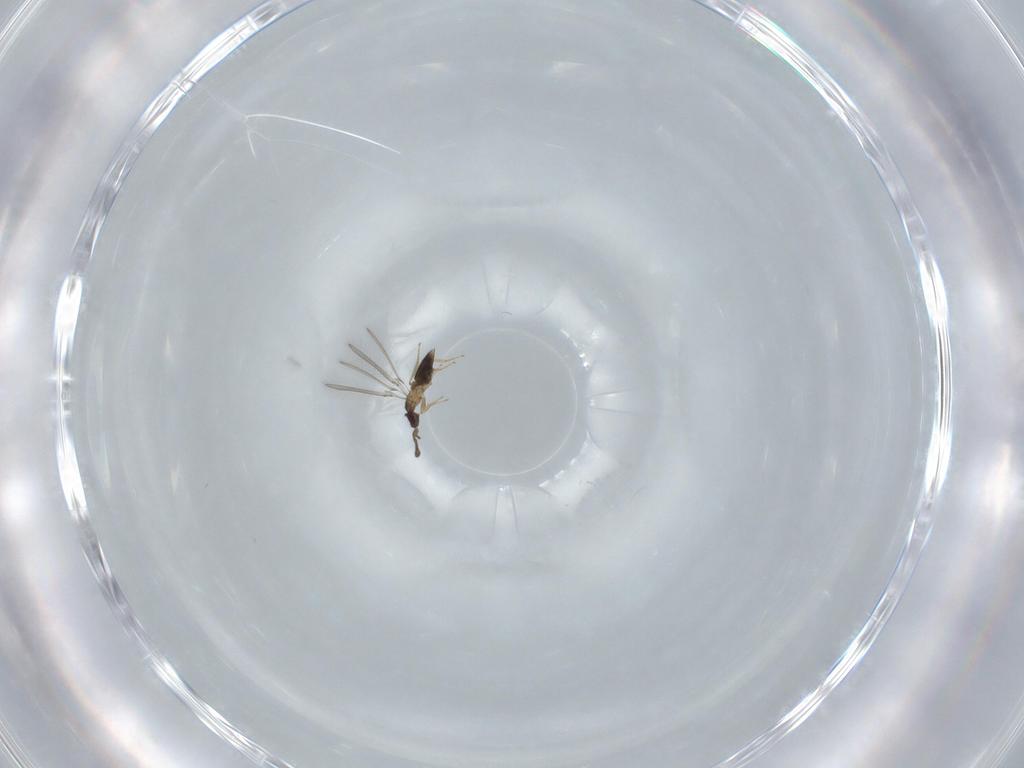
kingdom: Animalia
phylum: Arthropoda
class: Insecta
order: Hymenoptera
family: Mymaridae
